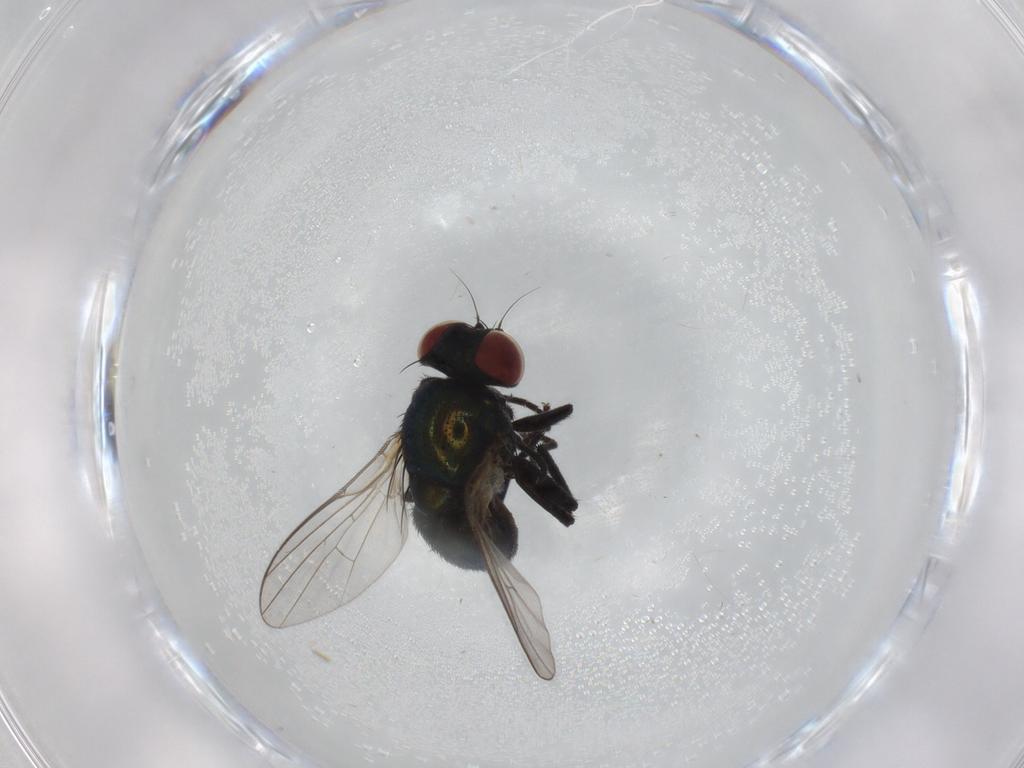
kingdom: Animalia
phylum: Arthropoda
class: Insecta
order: Diptera
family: Agromyzidae
